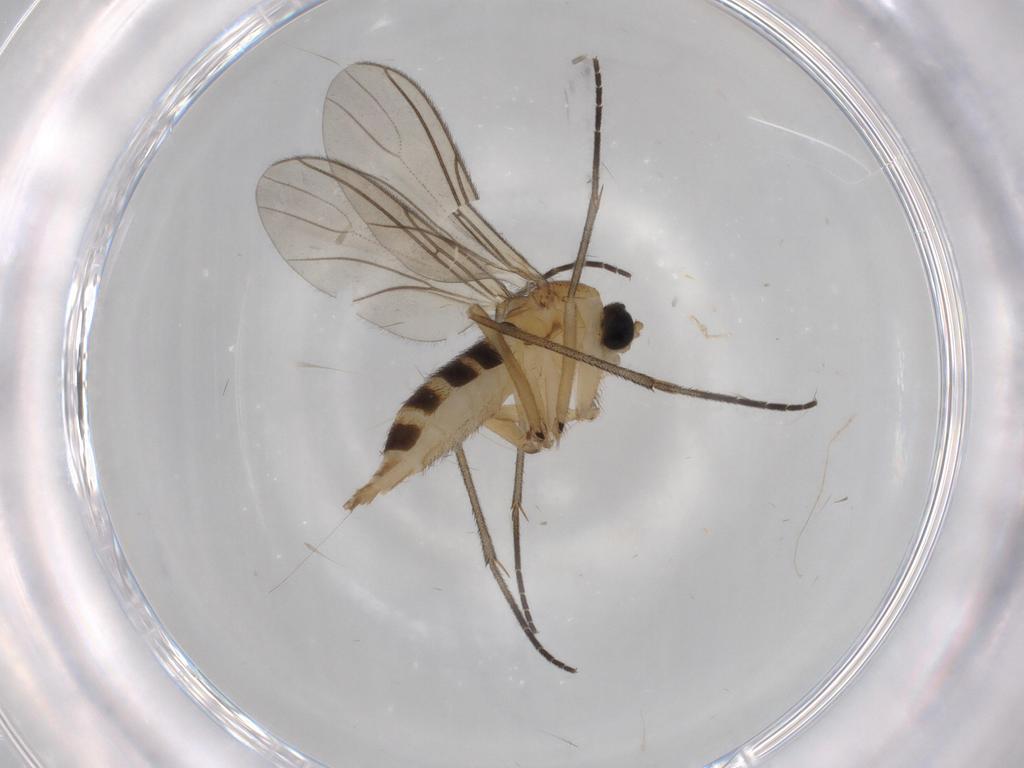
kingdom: Animalia
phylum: Arthropoda
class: Insecta
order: Diptera
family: Sciaridae
